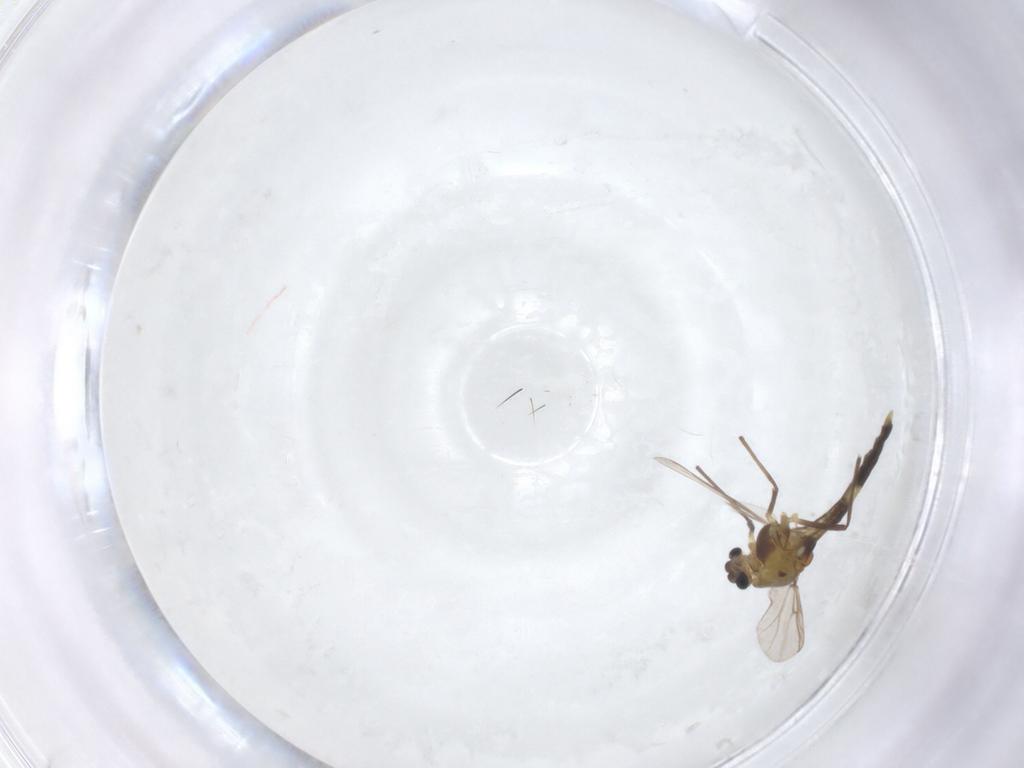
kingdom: Animalia
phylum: Arthropoda
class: Insecta
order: Diptera
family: Chironomidae
